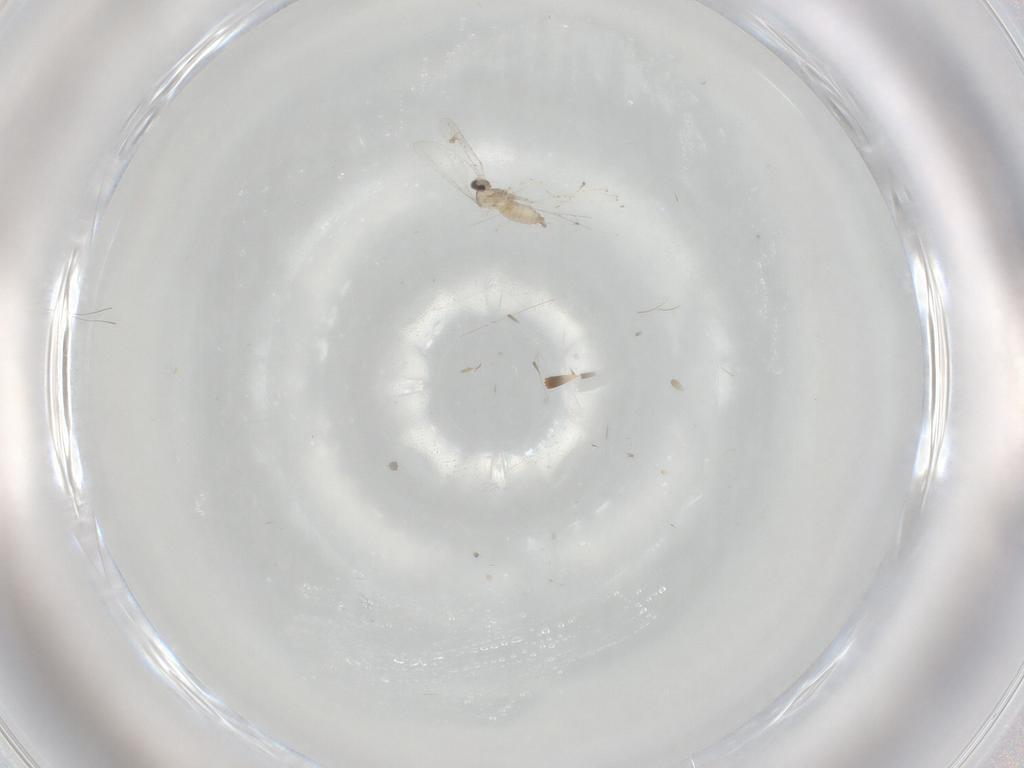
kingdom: Animalia
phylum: Arthropoda
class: Insecta
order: Diptera
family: Cecidomyiidae
